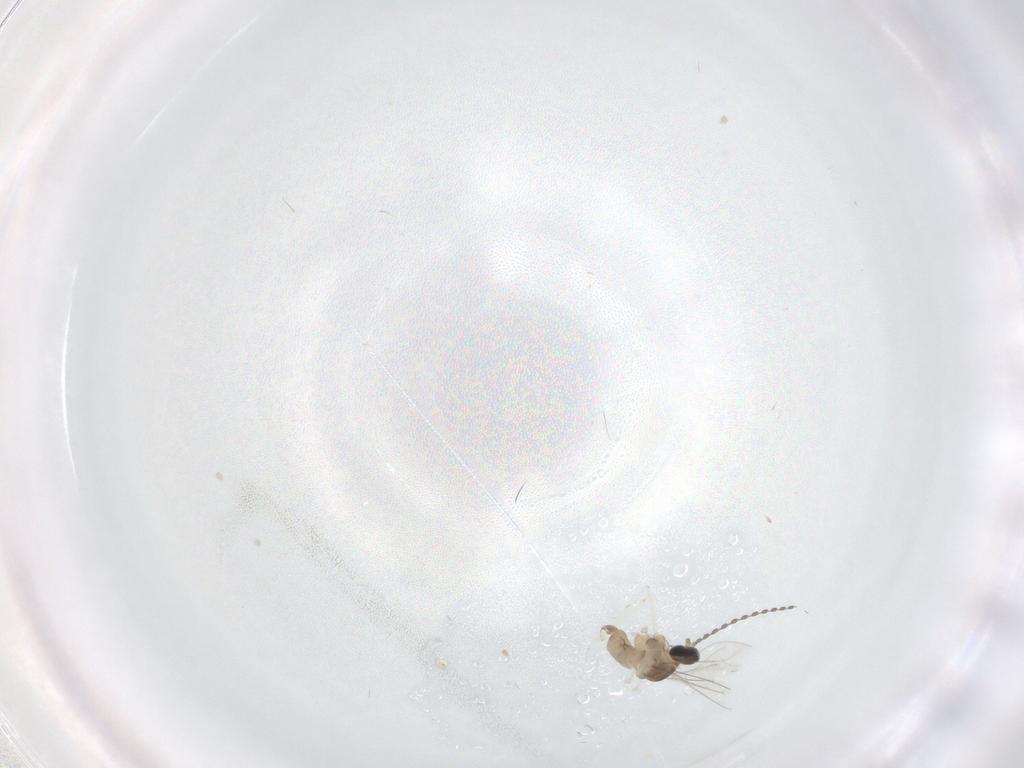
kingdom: Animalia
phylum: Arthropoda
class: Insecta
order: Diptera
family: Cecidomyiidae
